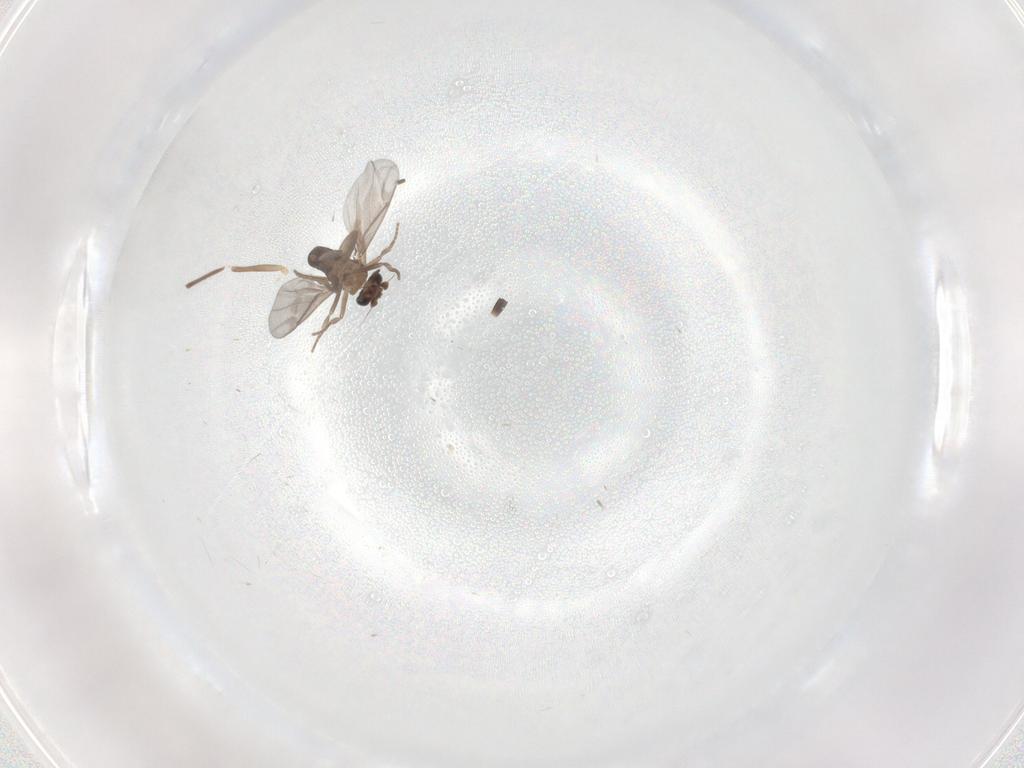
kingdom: Animalia
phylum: Arthropoda
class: Insecta
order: Diptera
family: Chironomidae
